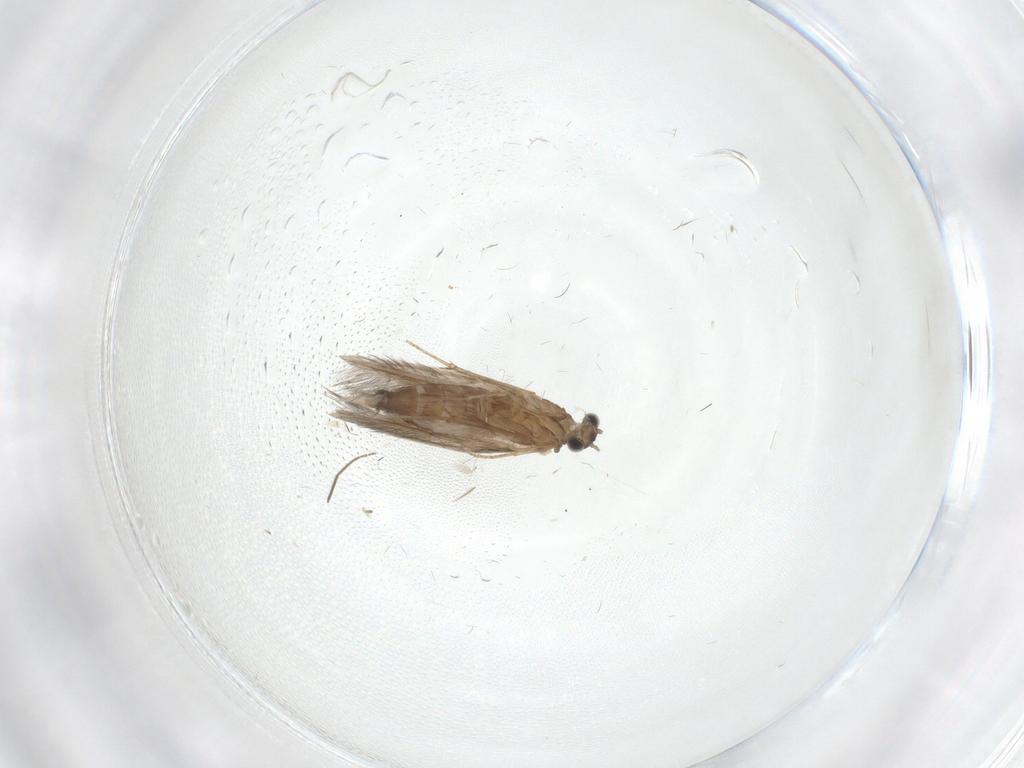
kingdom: Animalia
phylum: Arthropoda
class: Insecta
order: Trichoptera
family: Hydroptilidae
